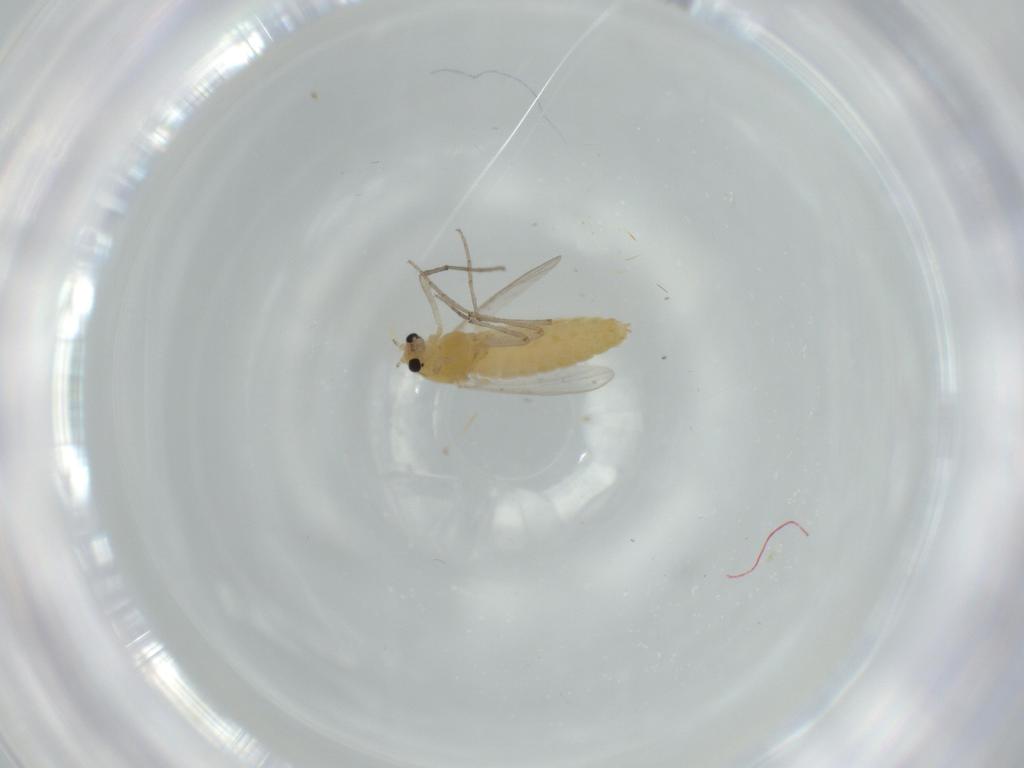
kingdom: Animalia
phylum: Arthropoda
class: Insecta
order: Diptera
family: Chironomidae
